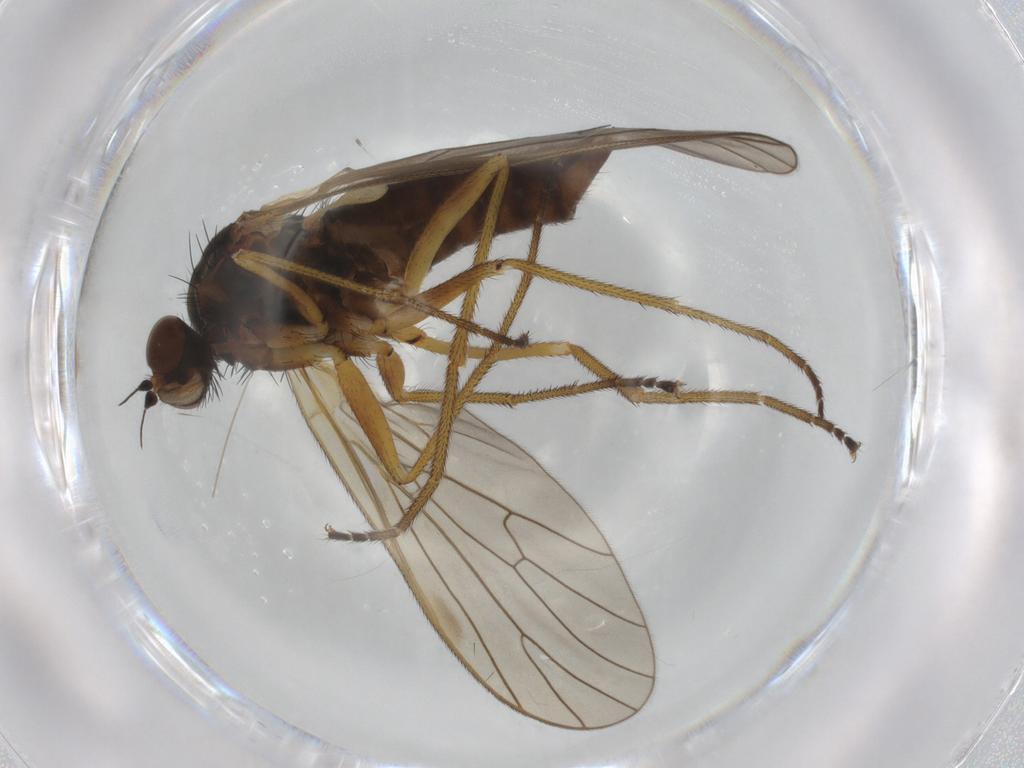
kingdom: Animalia
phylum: Arthropoda
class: Insecta
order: Diptera
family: Brachystomatidae
